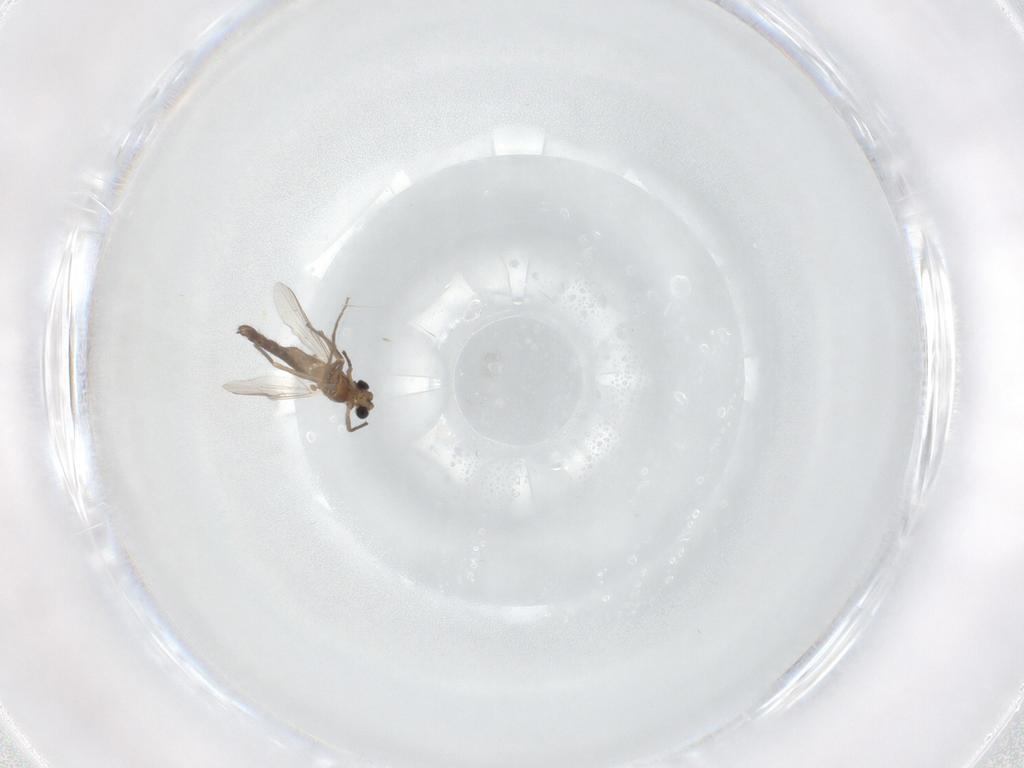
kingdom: Animalia
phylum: Arthropoda
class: Insecta
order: Diptera
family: Chironomidae
